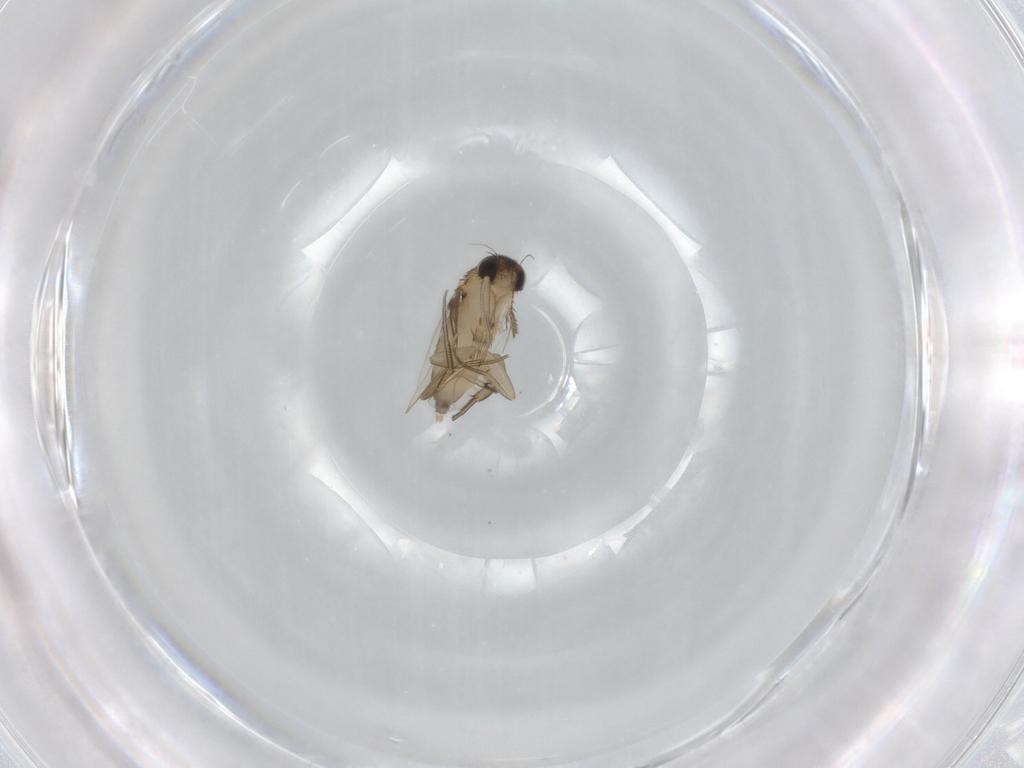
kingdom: Animalia
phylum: Arthropoda
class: Insecta
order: Diptera
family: Phoridae
